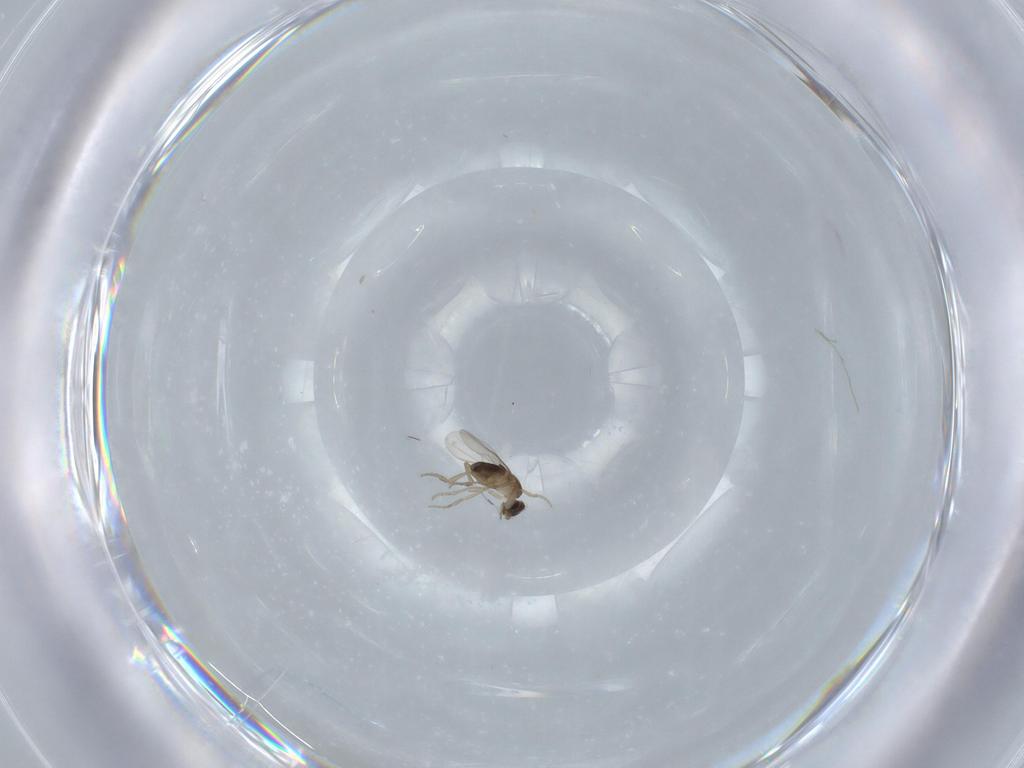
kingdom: Animalia
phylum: Arthropoda
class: Insecta
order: Diptera
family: Phoridae
